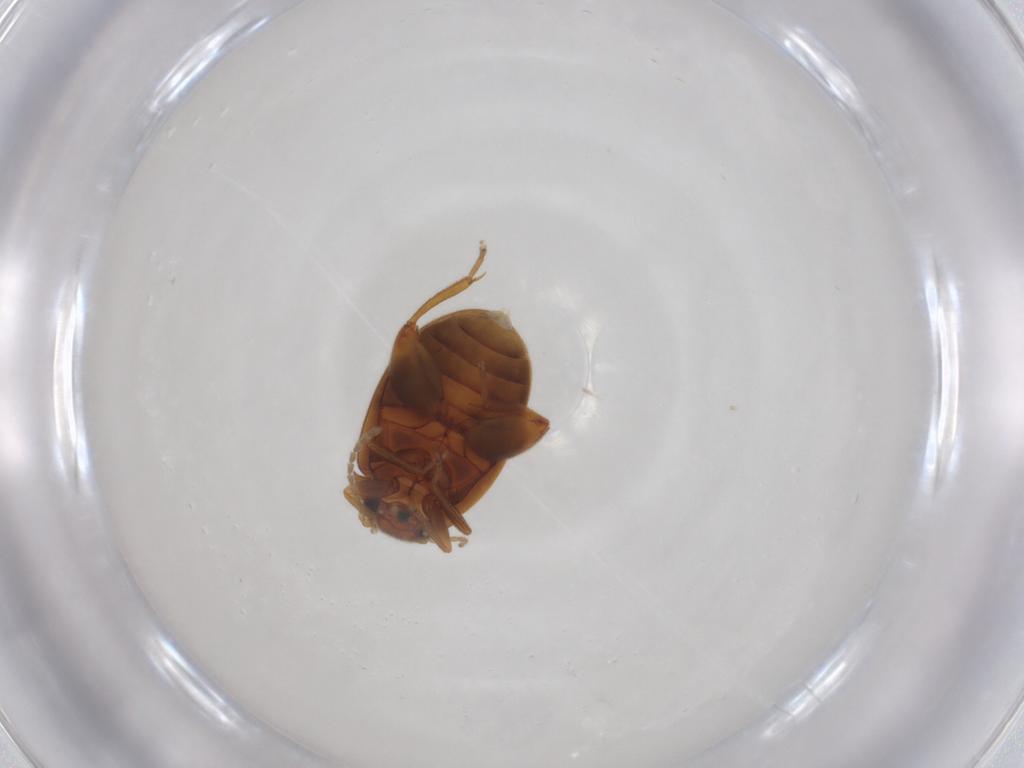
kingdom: Animalia
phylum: Arthropoda
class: Insecta
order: Coleoptera
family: Scirtidae
